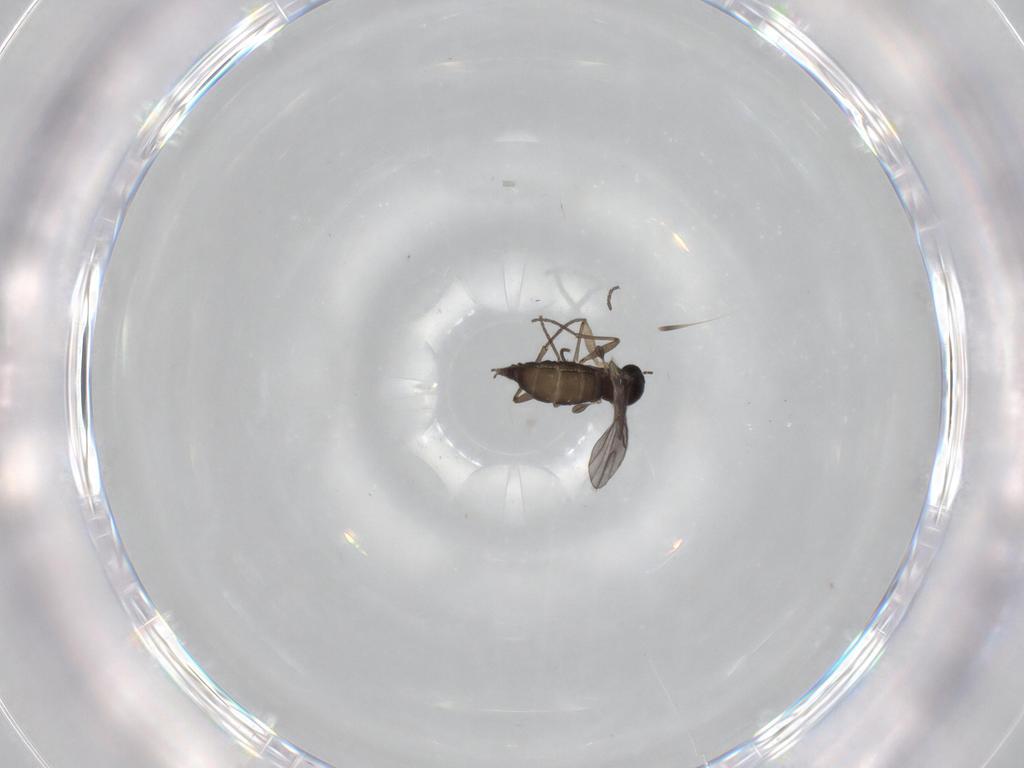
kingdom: Animalia
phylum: Arthropoda
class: Insecta
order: Diptera
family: Sciaridae
